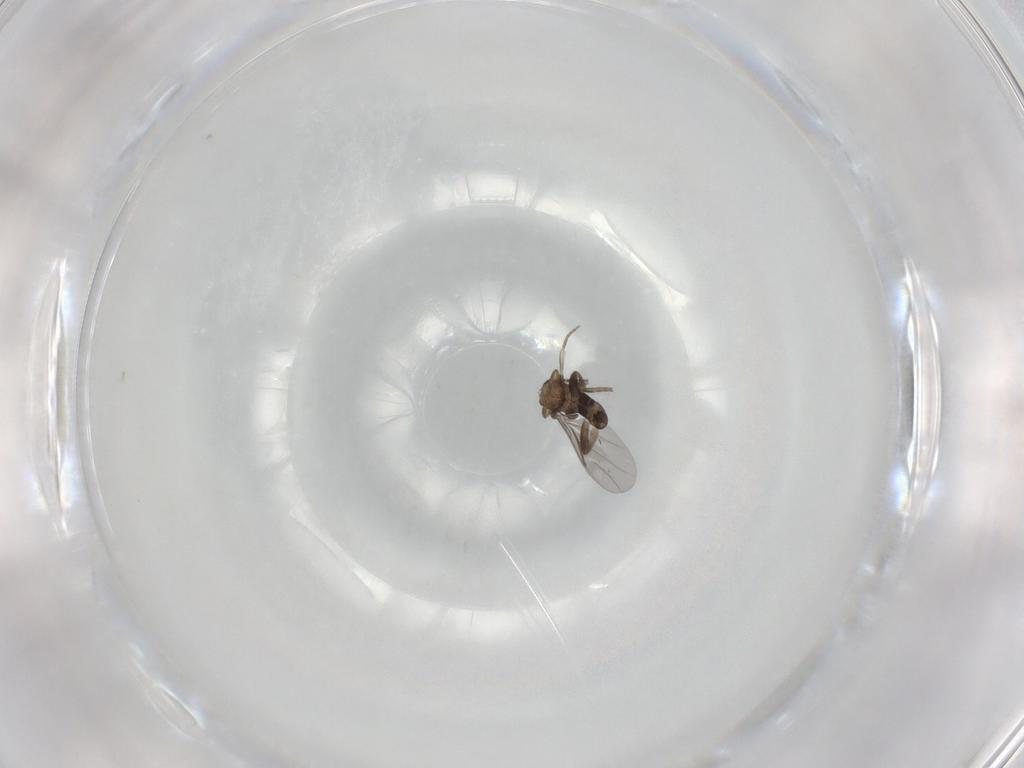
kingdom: Animalia
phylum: Arthropoda
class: Insecta
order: Diptera
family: Phoridae
